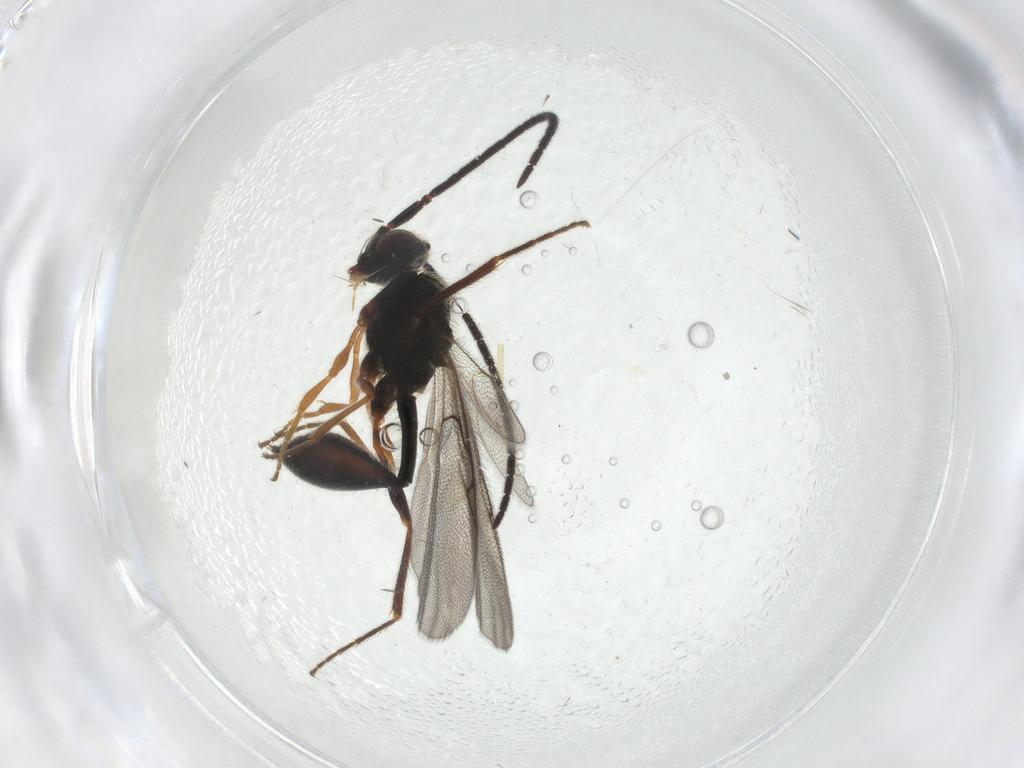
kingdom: Animalia
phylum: Arthropoda
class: Insecta
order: Hymenoptera
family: Diapriidae
